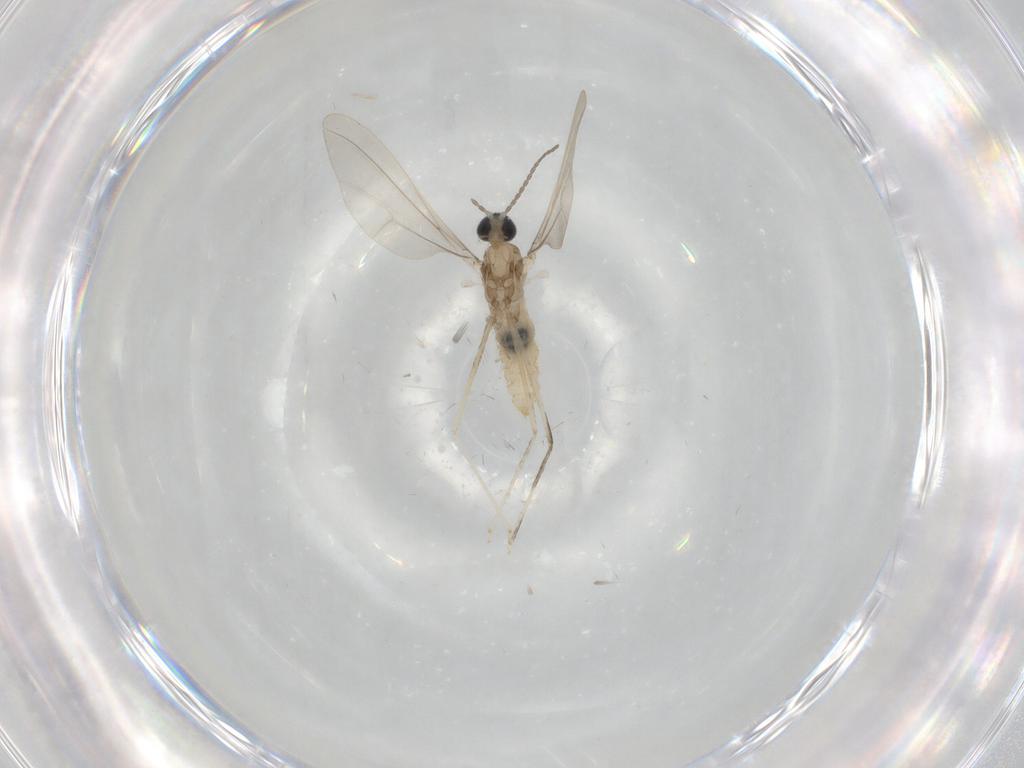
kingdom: Animalia
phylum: Arthropoda
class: Insecta
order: Diptera
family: Cecidomyiidae
